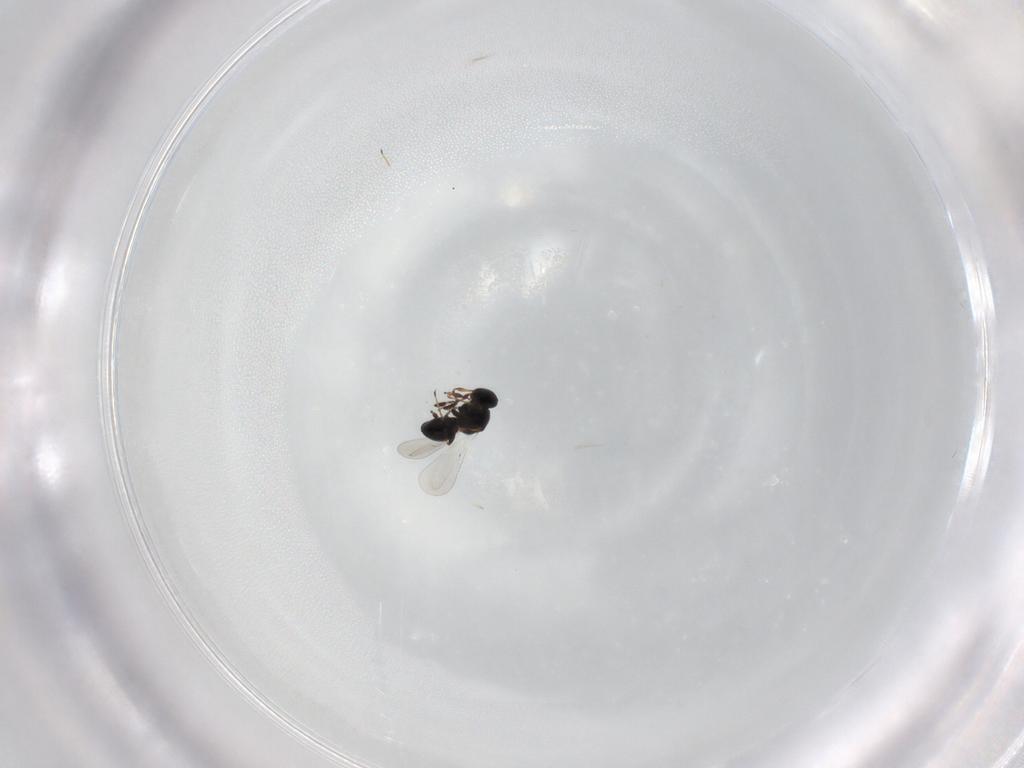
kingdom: Animalia
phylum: Arthropoda
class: Insecta
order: Hymenoptera
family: Platygastridae
